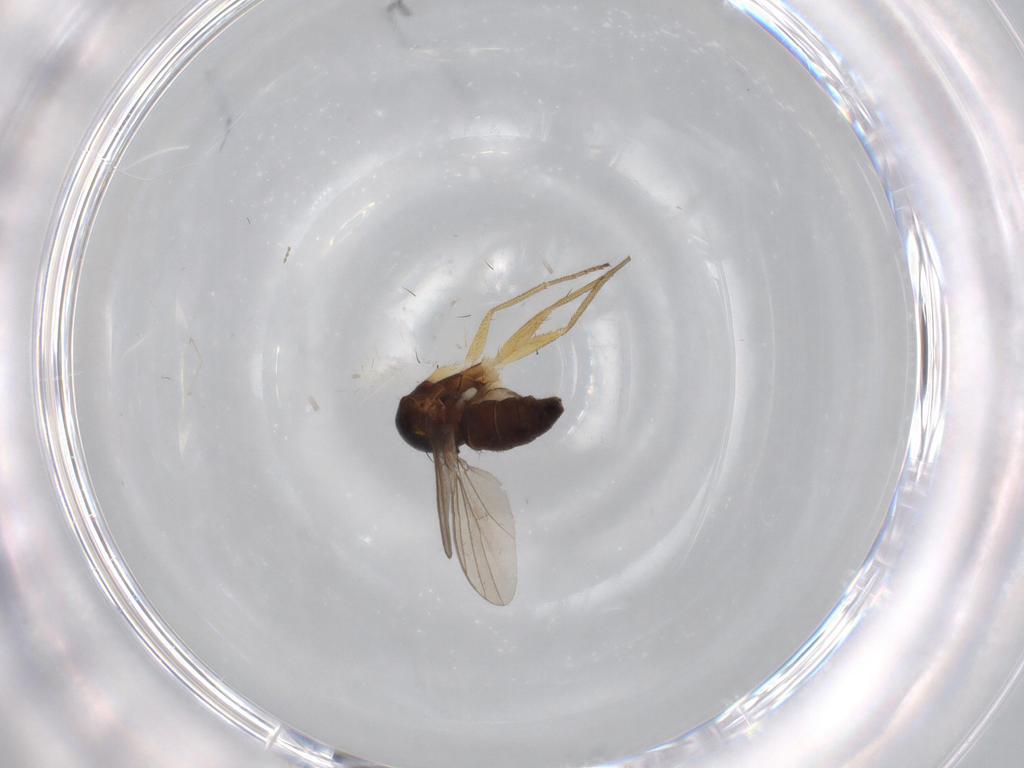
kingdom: Animalia
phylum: Arthropoda
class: Insecta
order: Diptera
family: Dolichopodidae
